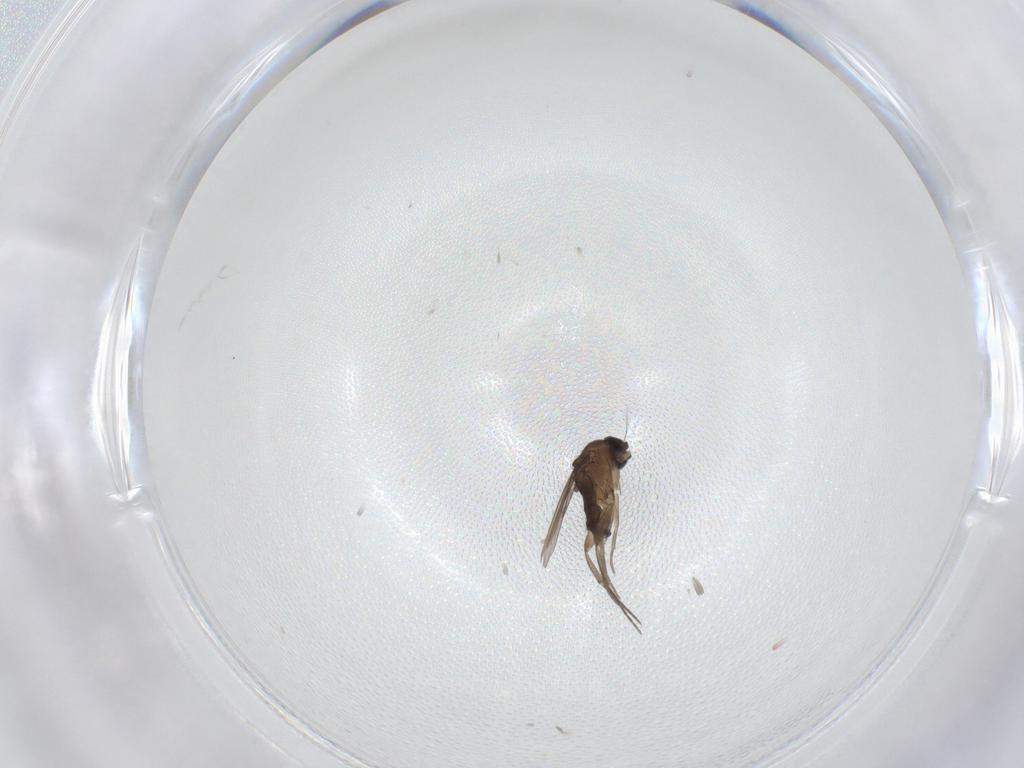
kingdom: Animalia
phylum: Arthropoda
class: Insecta
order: Diptera
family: Phoridae
